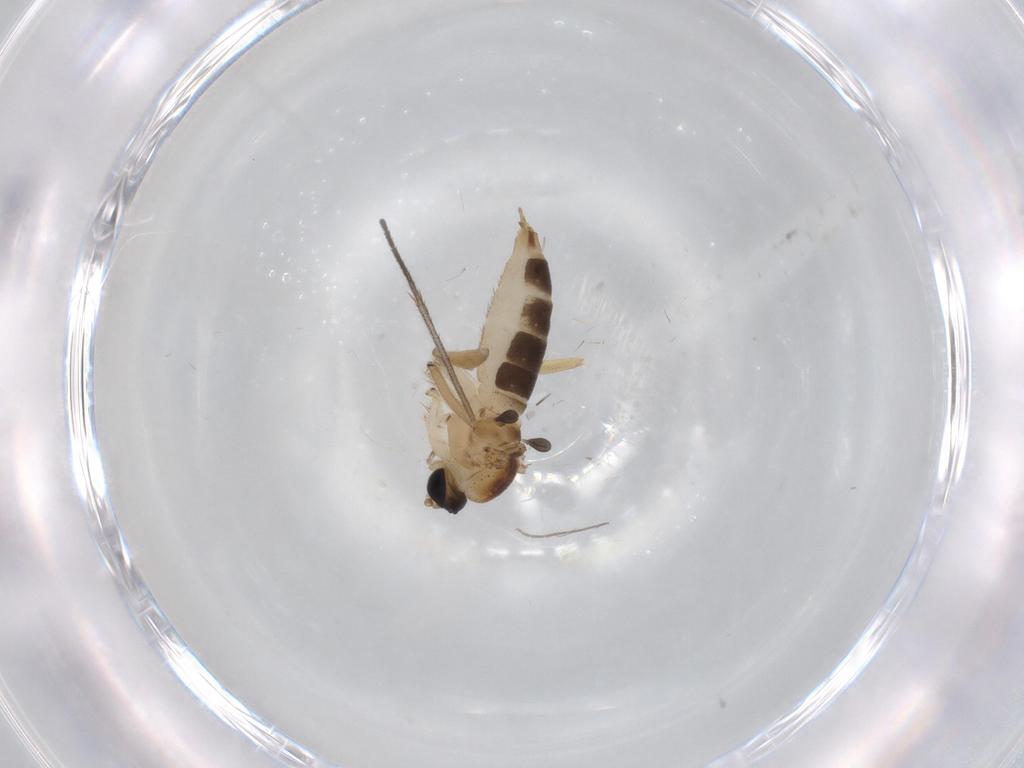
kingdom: Animalia
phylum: Arthropoda
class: Insecta
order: Diptera
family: Sciaridae
